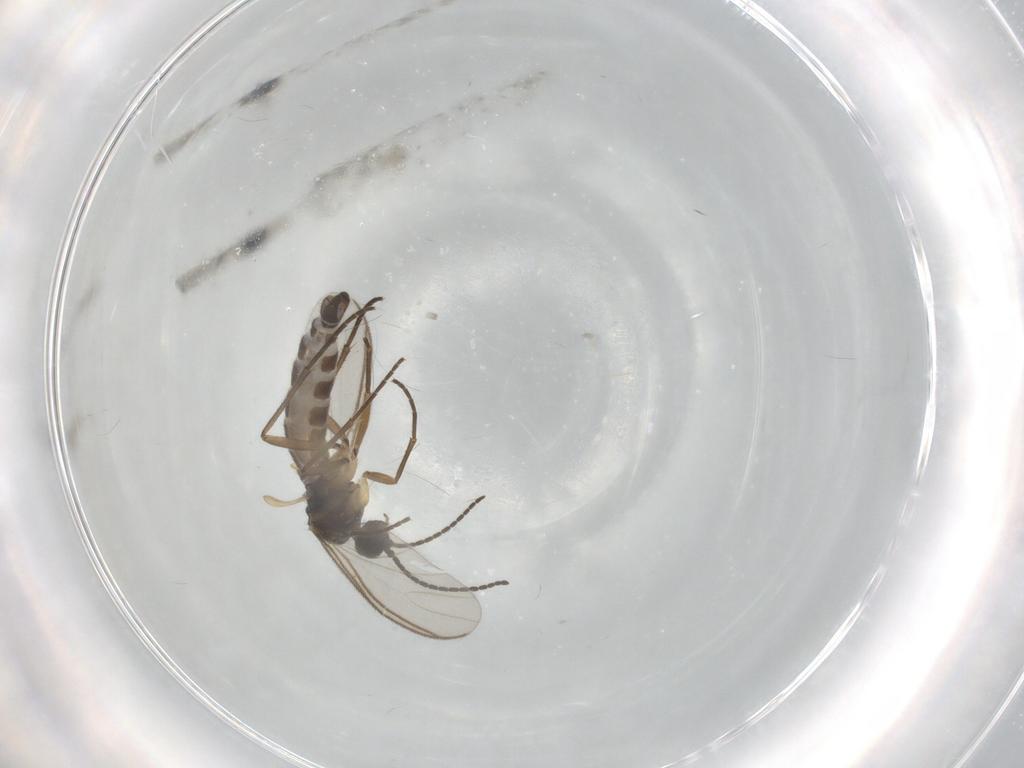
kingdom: Animalia
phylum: Arthropoda
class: Insecta
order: Diptera
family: Sciaridae
